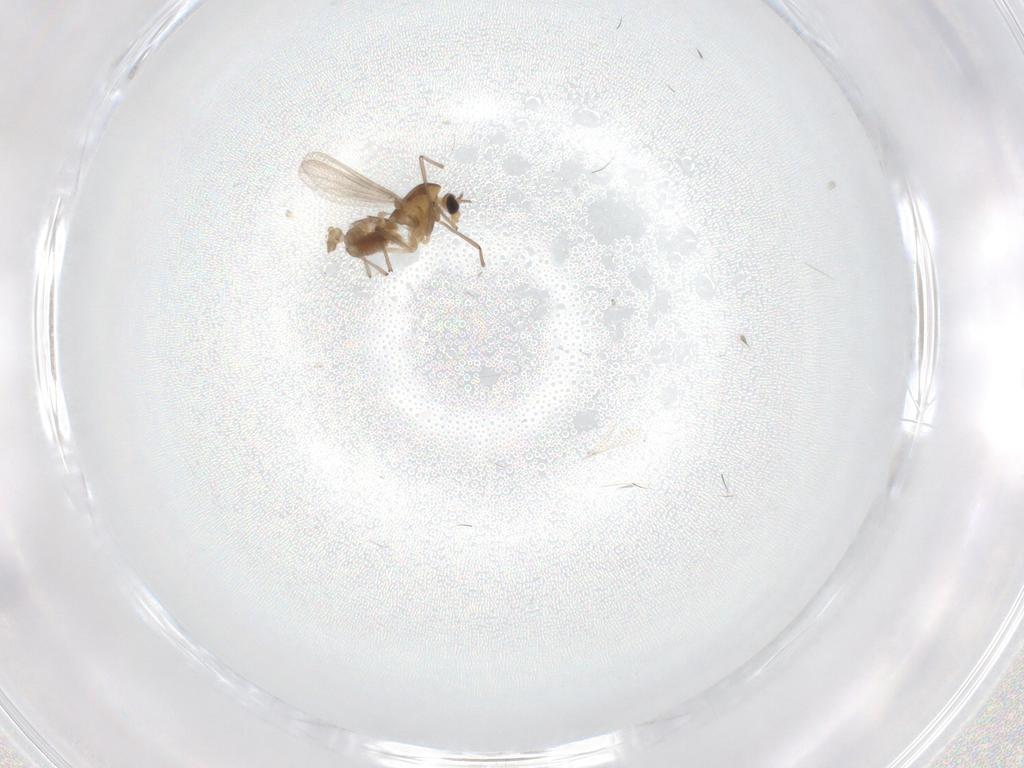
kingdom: Animalia
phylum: Arthropoda
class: Insecta
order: Diptera
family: Chironomidae
